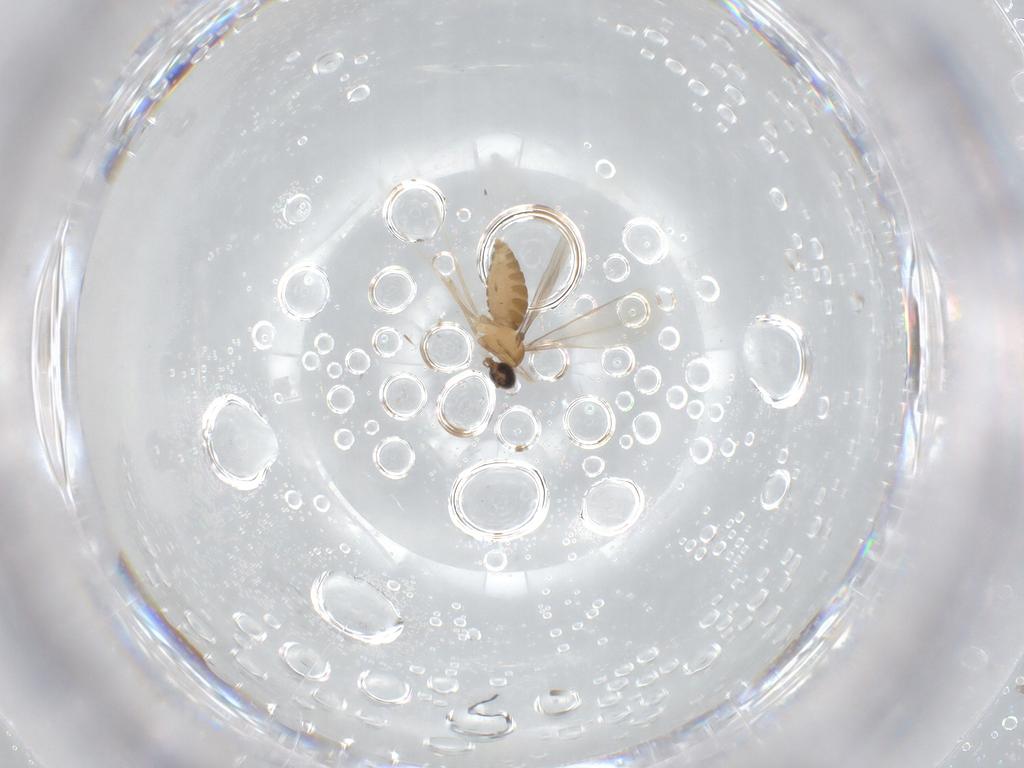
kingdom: Animalia
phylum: Arthropoda
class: Insecta
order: Diptera
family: Cecidomyiidae
